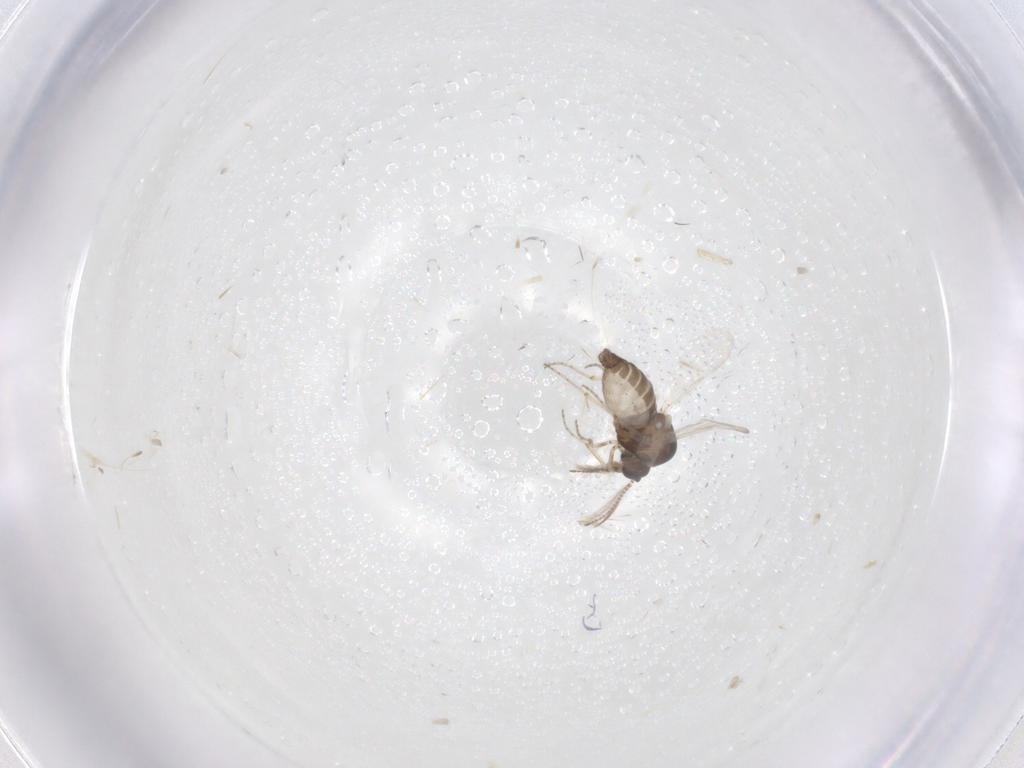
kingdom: Animalia
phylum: Arthropoda
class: Insecta
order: Diptera
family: Ceratopogonidae
